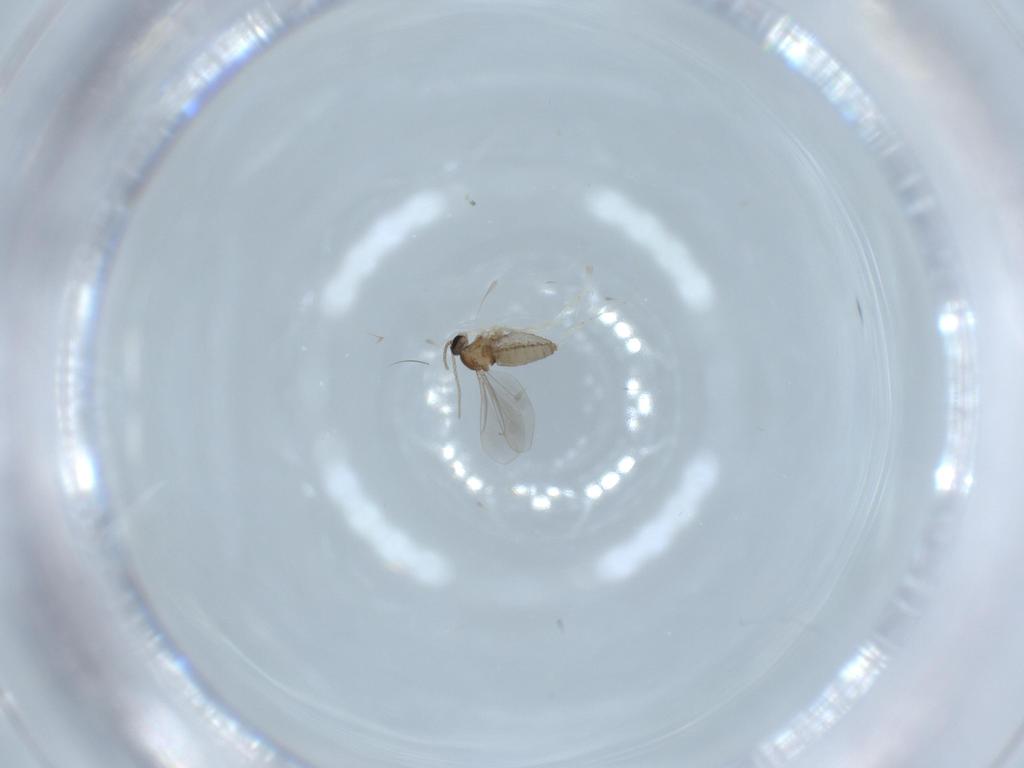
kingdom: Animalia
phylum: Arthropoda
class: Insecta
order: Diptera
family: Cecidomyiidae
